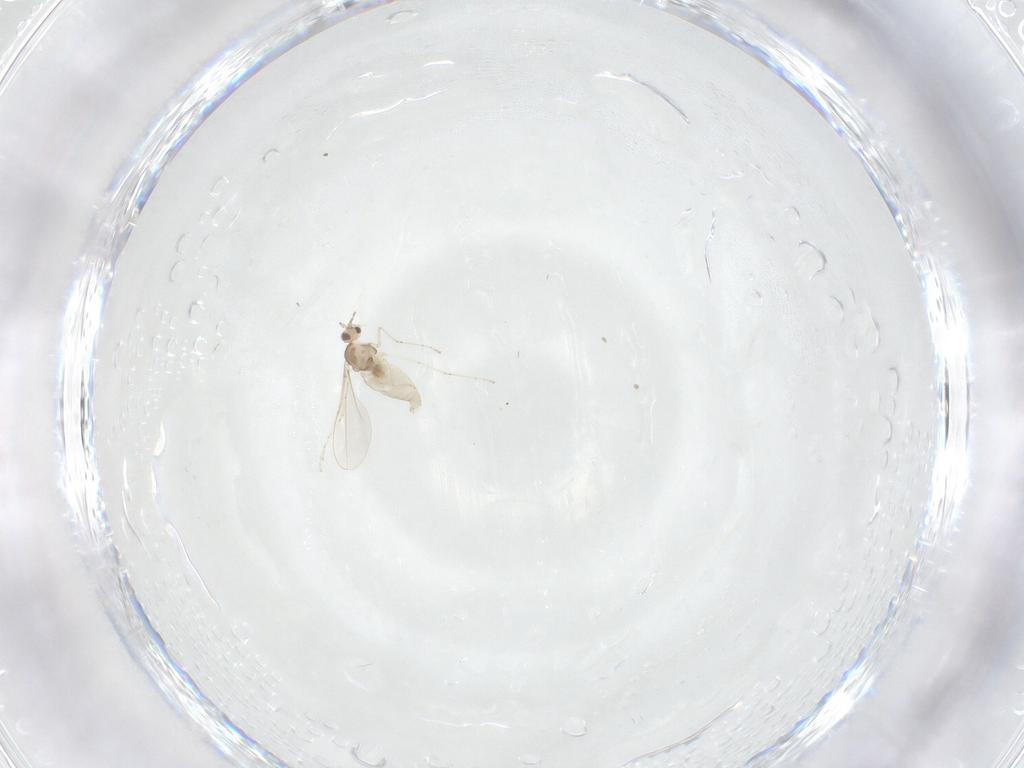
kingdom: Animalia
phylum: Arthropoda
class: Insecta
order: Diptera
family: Cecidomyiidae
